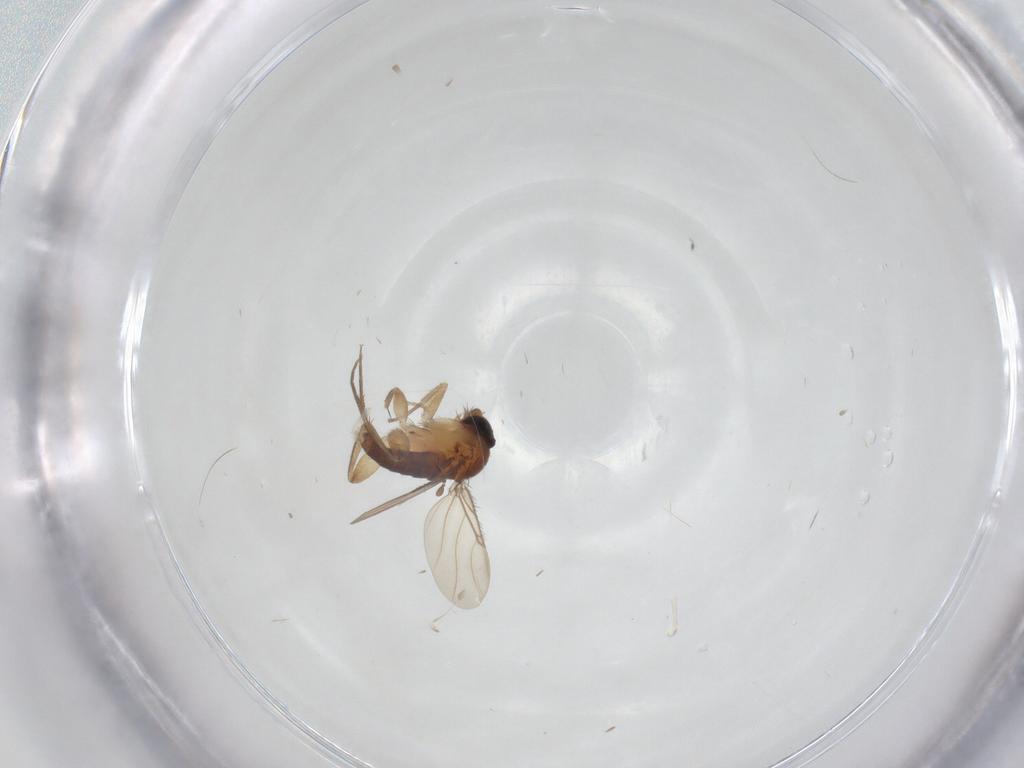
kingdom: Animalia
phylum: Arthropoda
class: Insecta
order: Diptera
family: Phoridae
